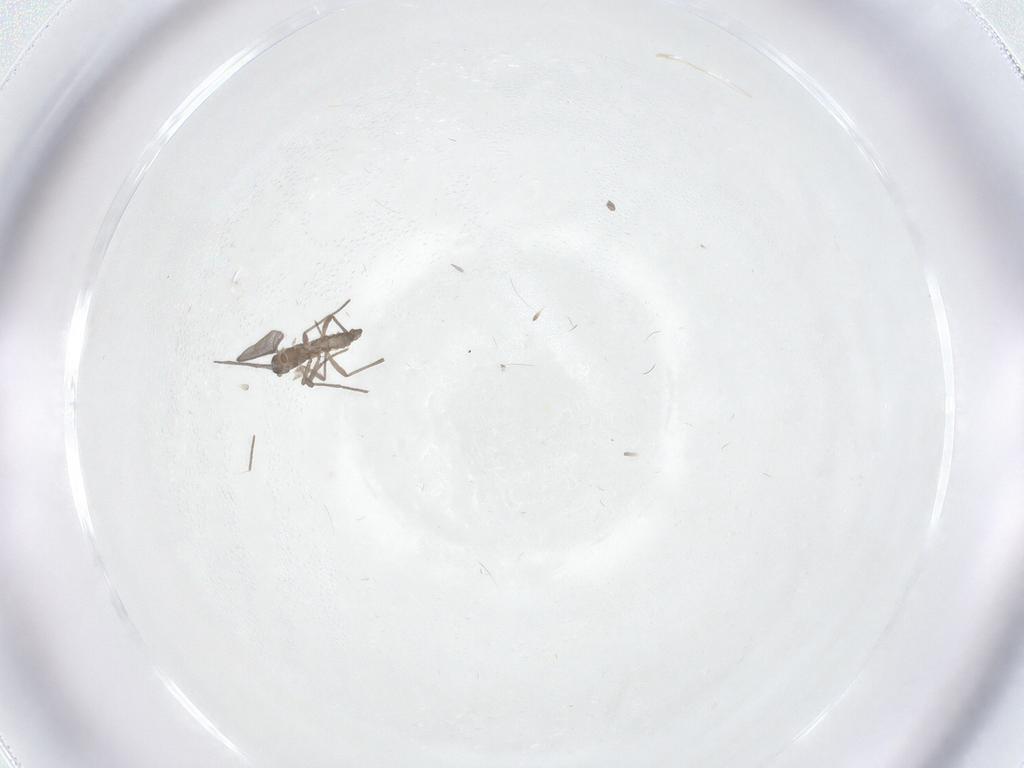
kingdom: Animalia
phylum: Arthropoda
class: Insecta
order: Diptera
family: Sciaridae
